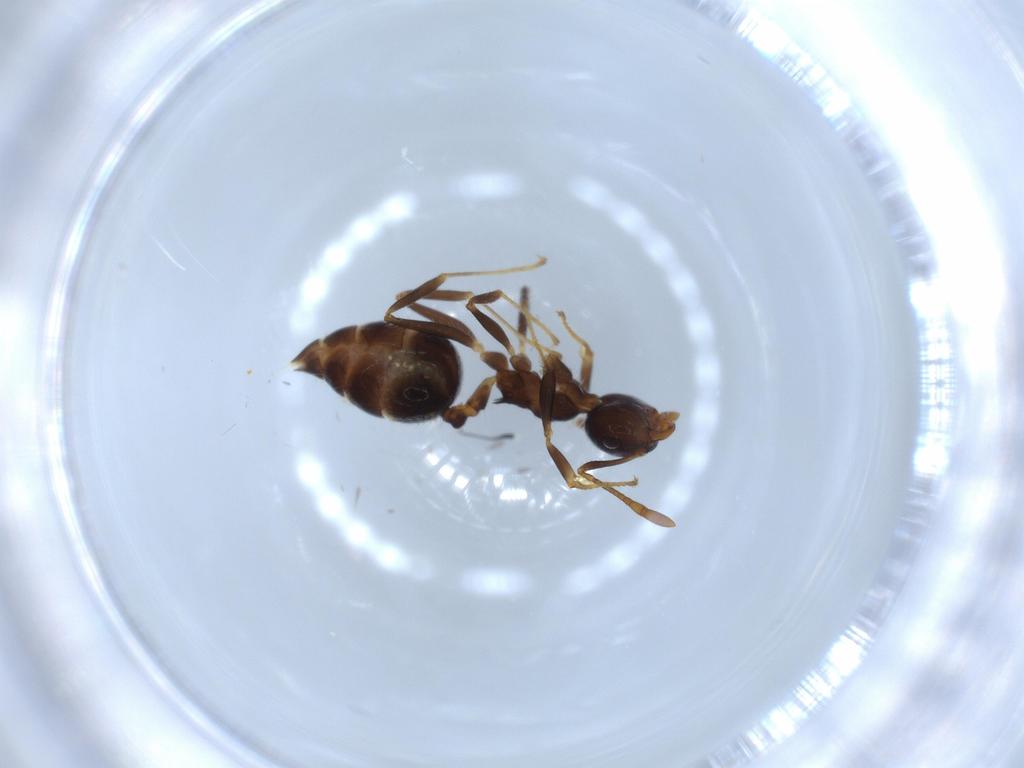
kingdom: Animalia
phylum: Arthropoda
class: Insecta
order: Hymenoptera
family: Formicidae
